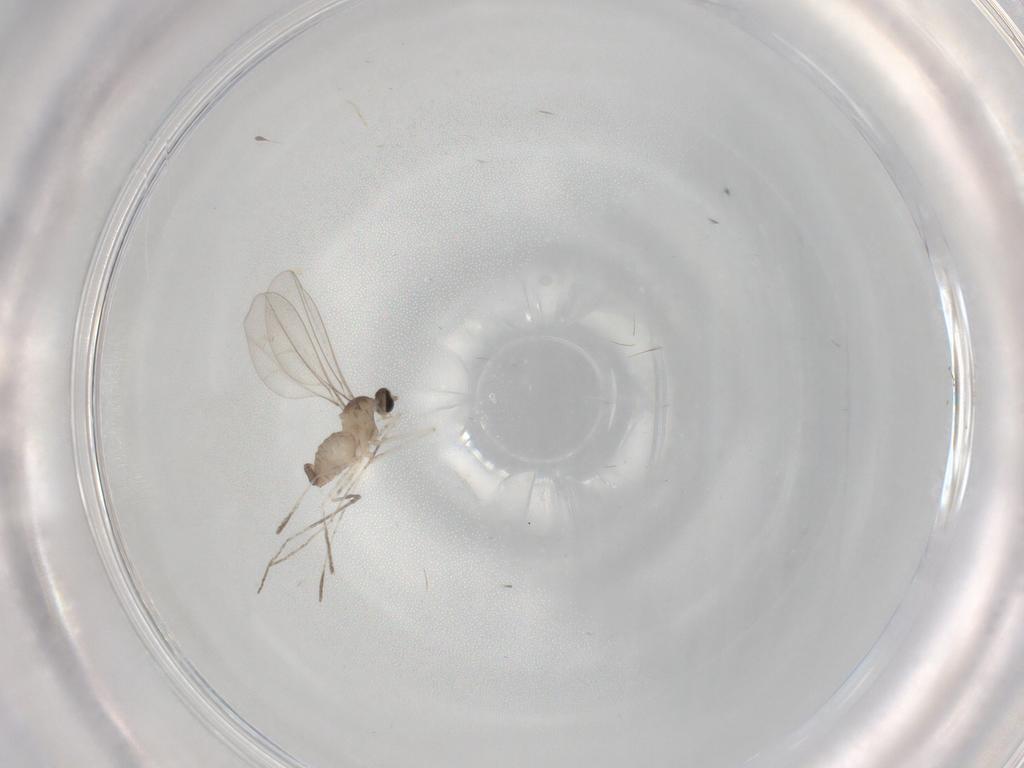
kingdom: Animalia
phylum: Arthropoda
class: Insecta
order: Diptera
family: Cecidomyiidae
